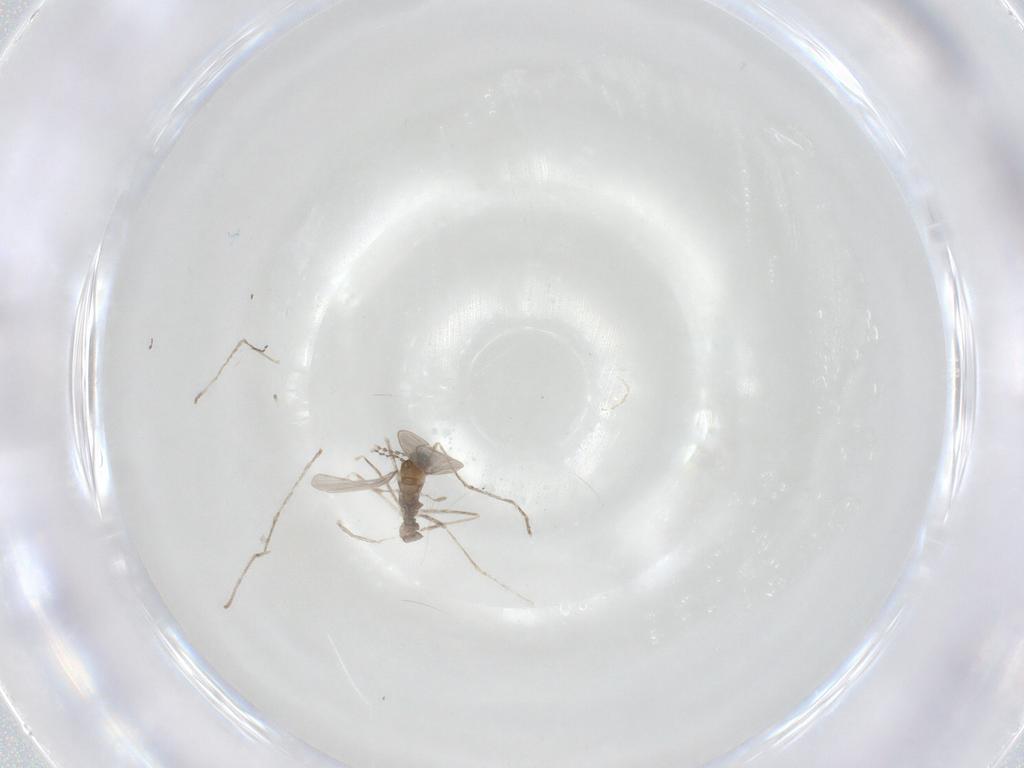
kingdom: Animalia
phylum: Arthropoda
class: Insecta
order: Diptera
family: Cecidomyiidae
